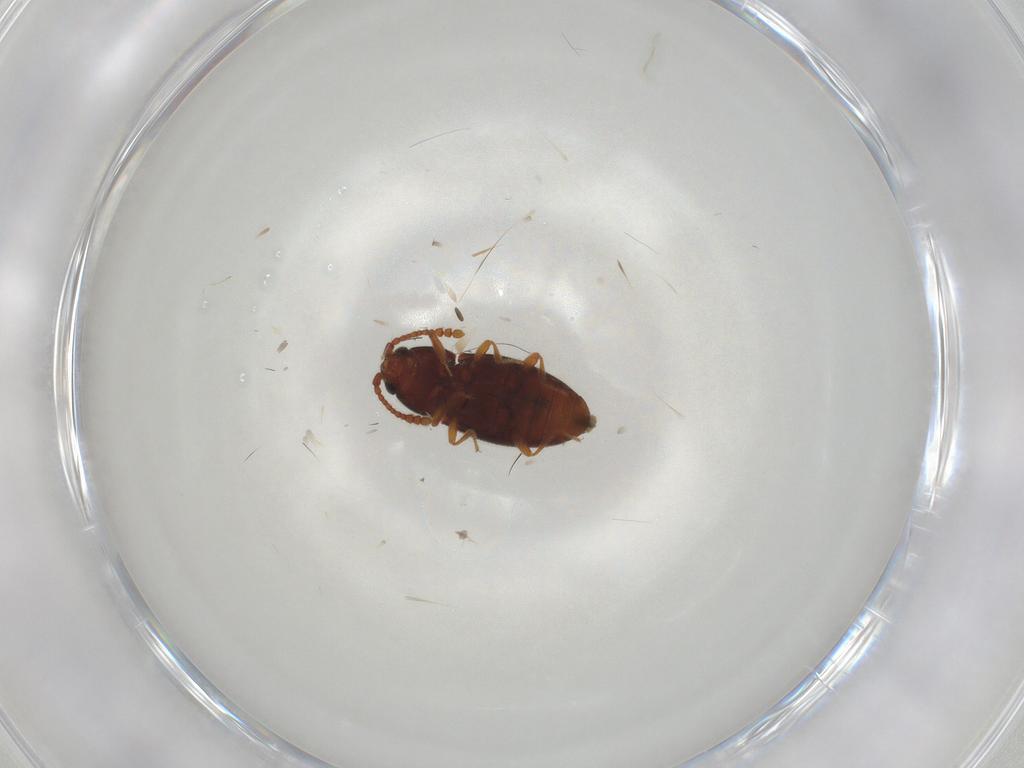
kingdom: Animalia
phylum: Arthropoda
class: Insecta
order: Coleoptera
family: Cryptophagidae
